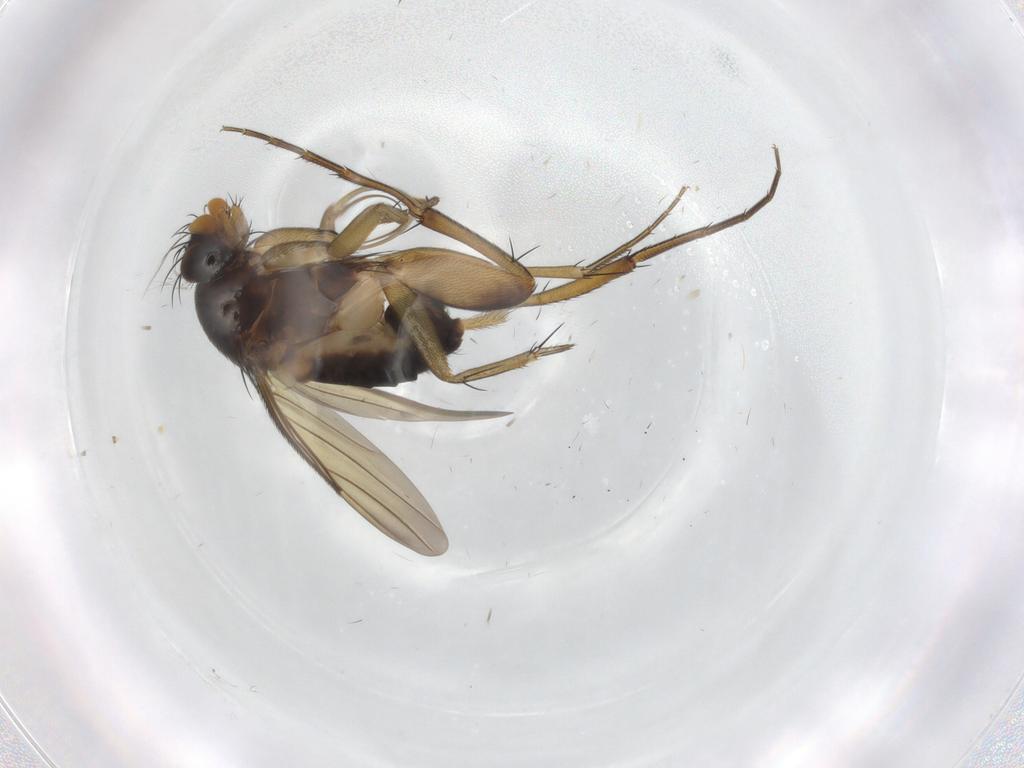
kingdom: Animalia
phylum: Arthropoda
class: Insecta
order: Diptera
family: Phoridae
